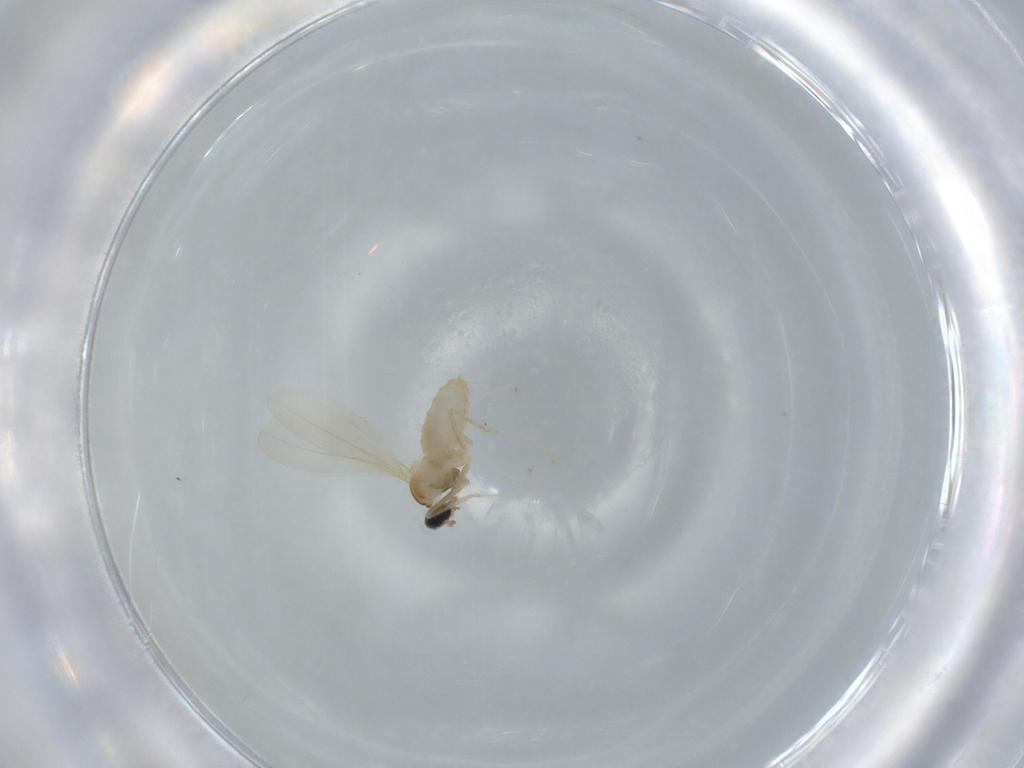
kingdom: Animalia
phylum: Arthropoda
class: Insecta
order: Diptera
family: Cecidomyiidae
